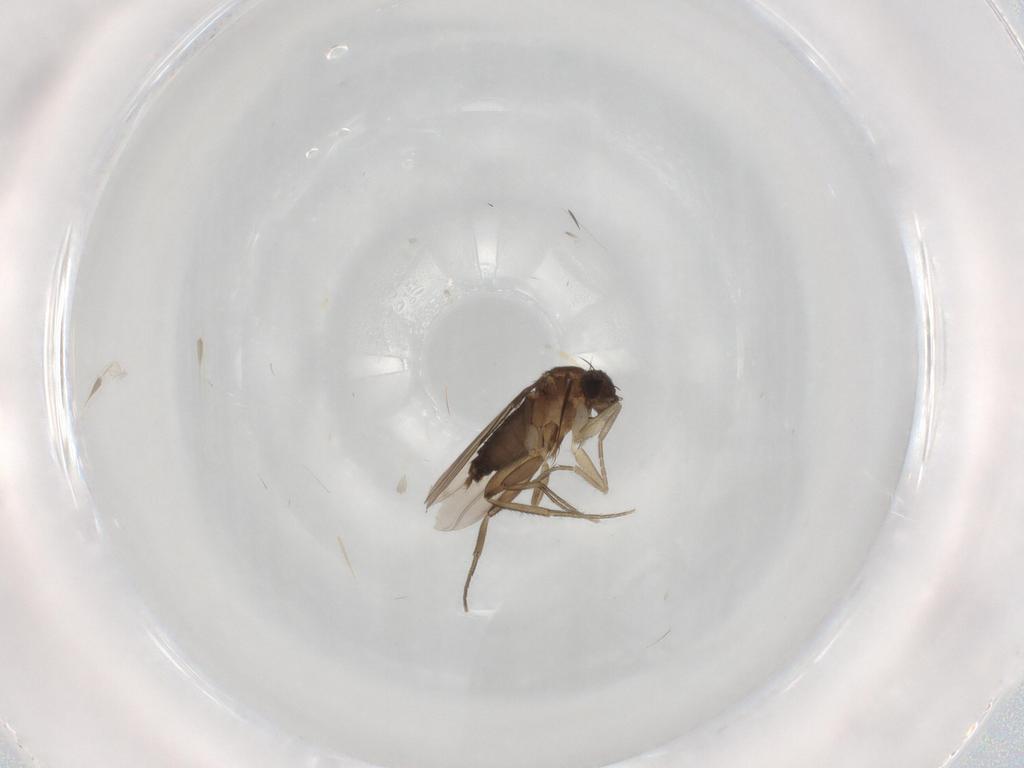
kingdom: Animalia
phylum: Arthropoda
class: Insecta
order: Diptera
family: Phoridae
